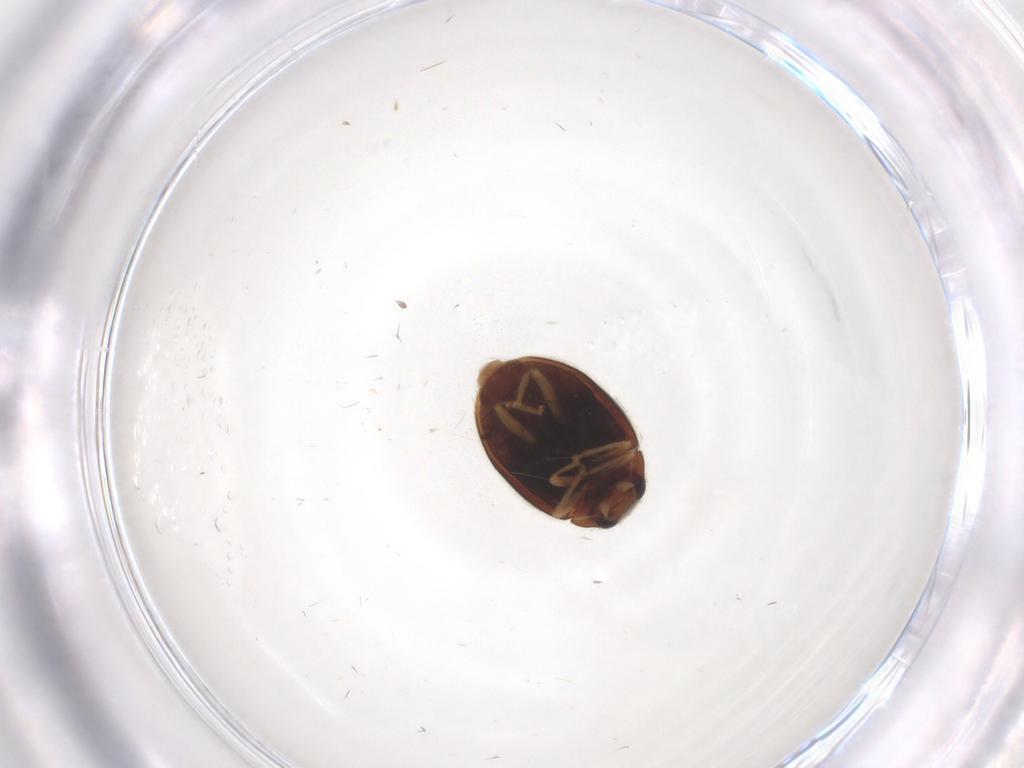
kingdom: Animalia
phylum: Arthropoda
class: Insecta
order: Coleoptera
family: Coccinellidae
